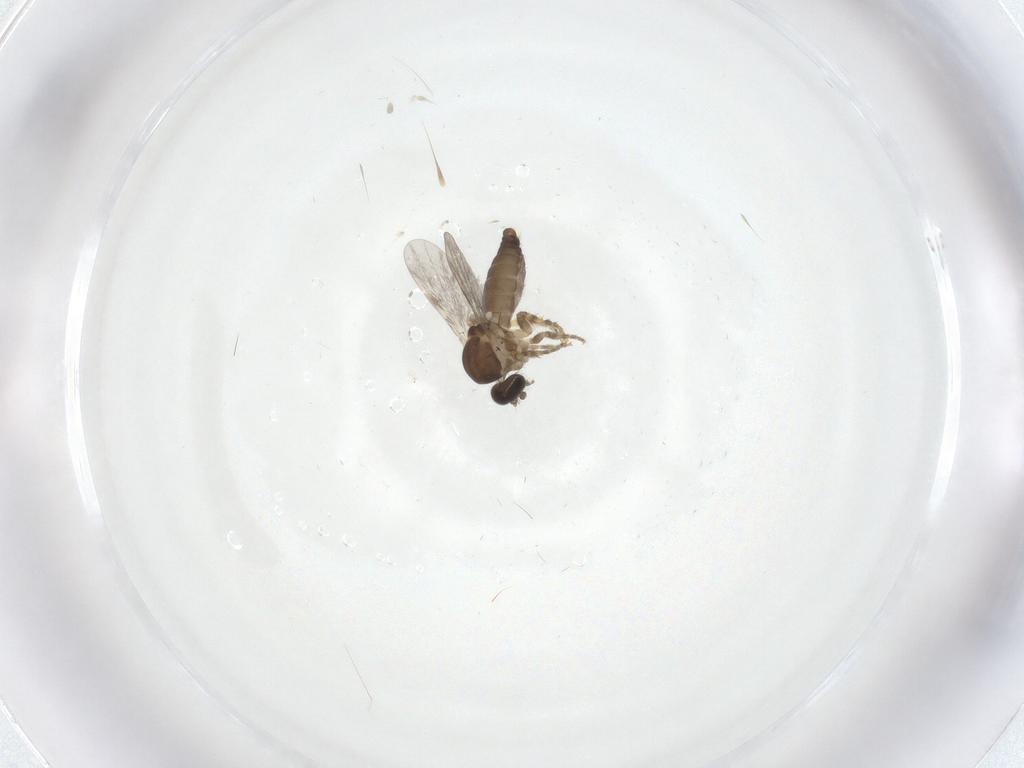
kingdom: Animalia
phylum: Arthropoda
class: Insecta
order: Diptera
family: Ceratopogonidae
